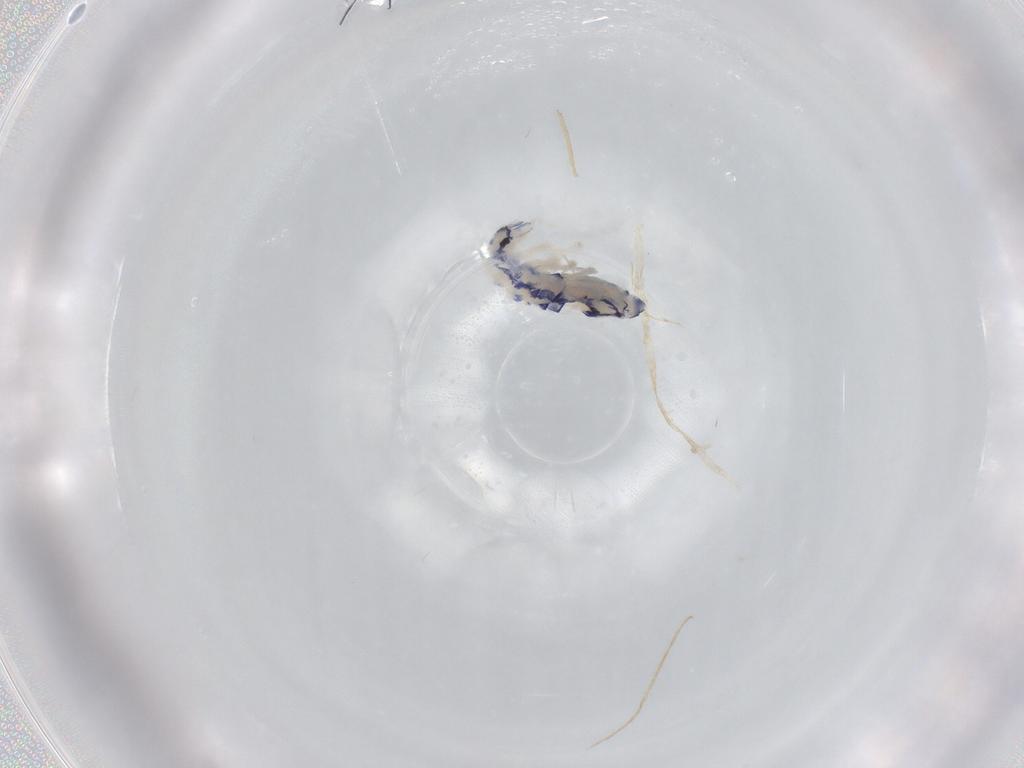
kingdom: Animalia
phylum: Arthropoda
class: Collembola
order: Entomobryomorpha
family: Entomobryidae
